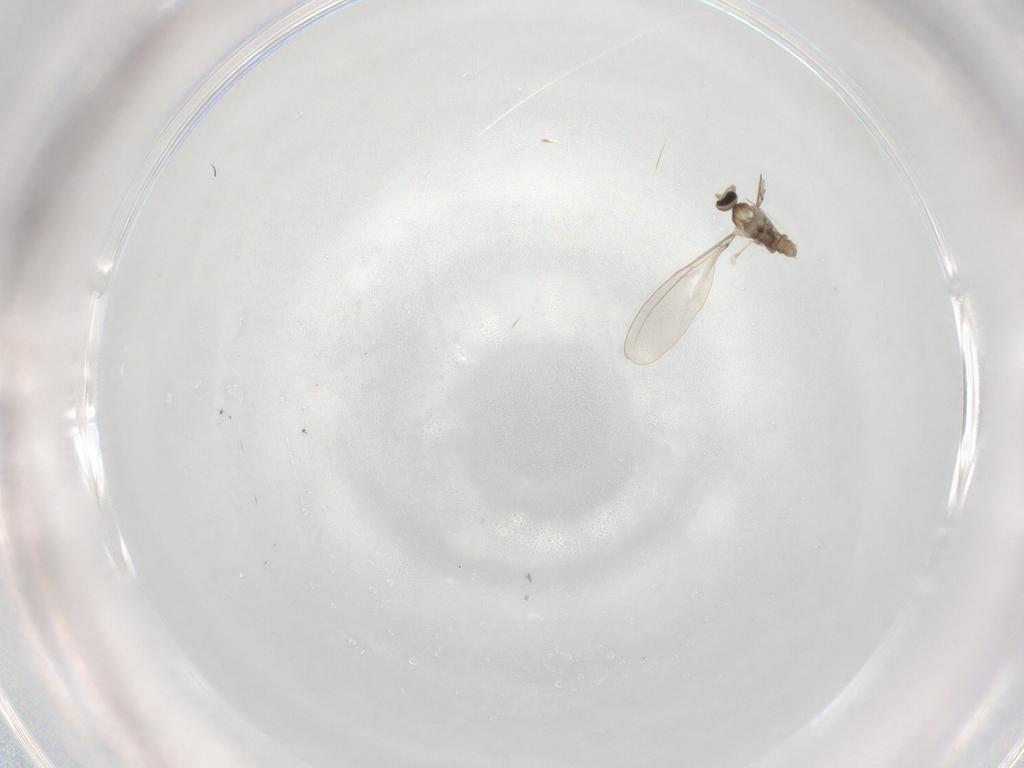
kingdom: Animalia
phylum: Arthropoda
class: Insecta
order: Diptera
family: Cecidomyiidae
